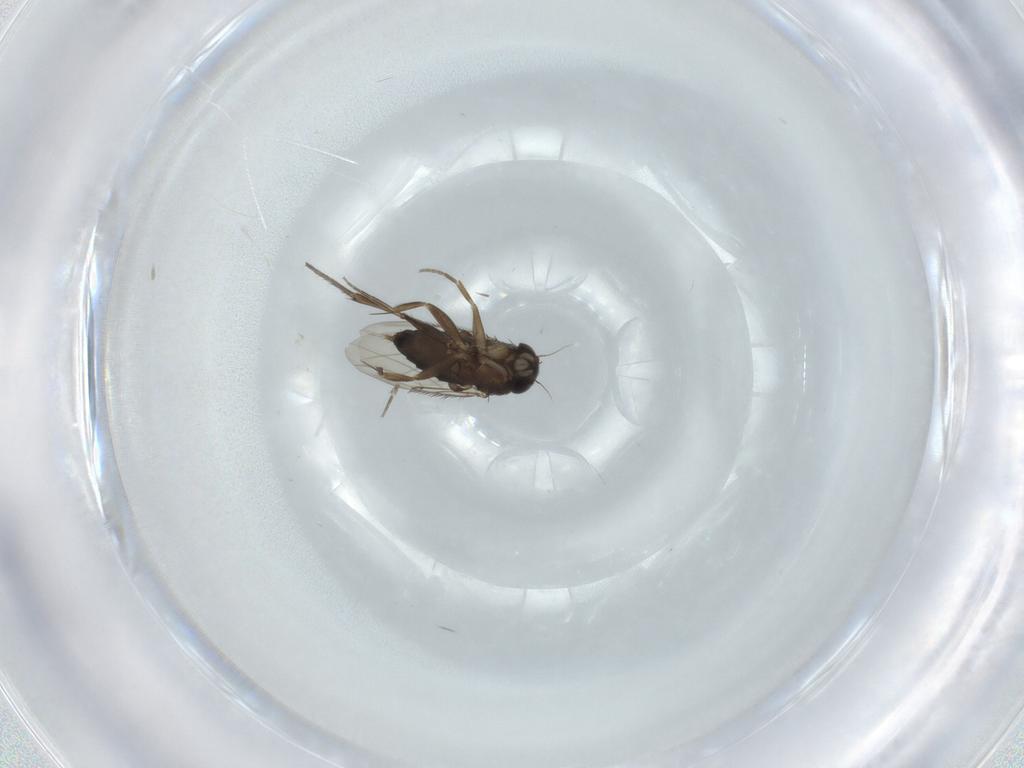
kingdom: Animalia
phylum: Arthropoda
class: Insecta
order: Diptera
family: Phoridae
